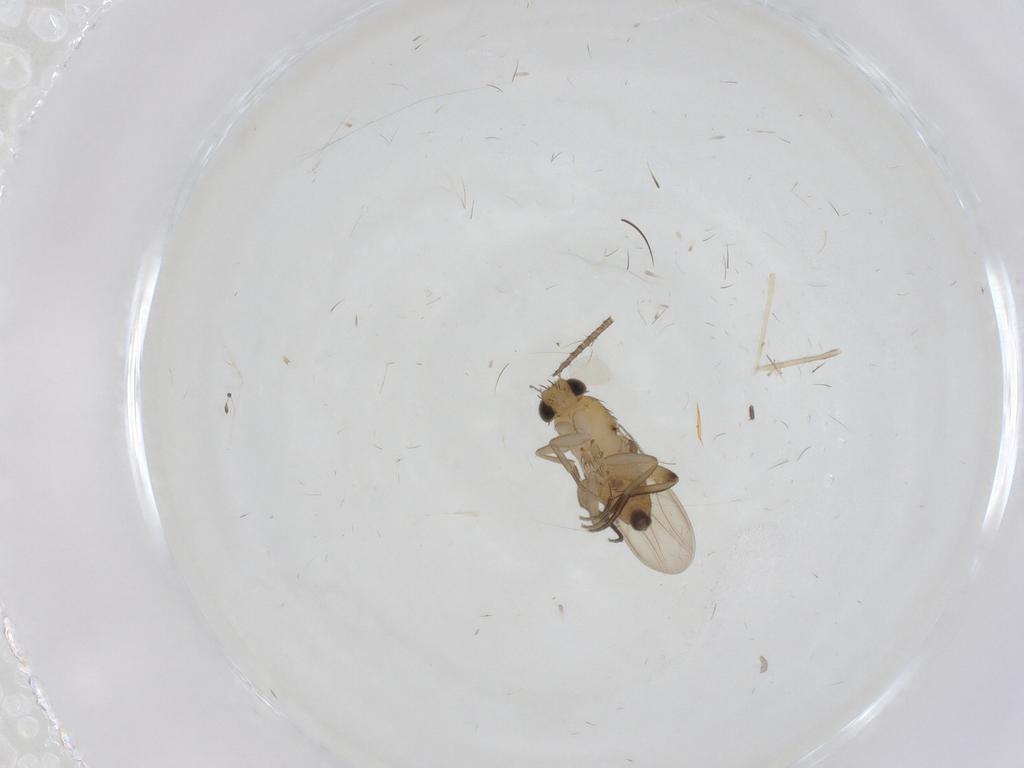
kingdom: Animalia
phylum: Arthropoda
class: Insecta
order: Diptera
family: Phoridae
